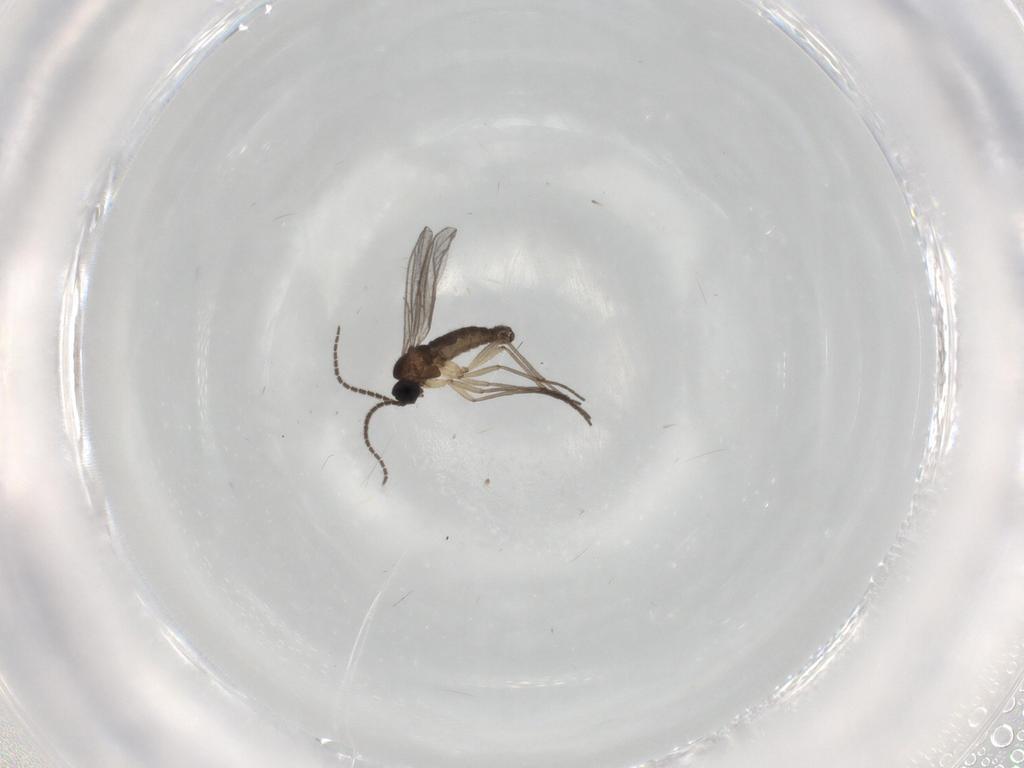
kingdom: Animalia
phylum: Arthropoda
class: Insecta
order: Diptera
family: Sciaridae
